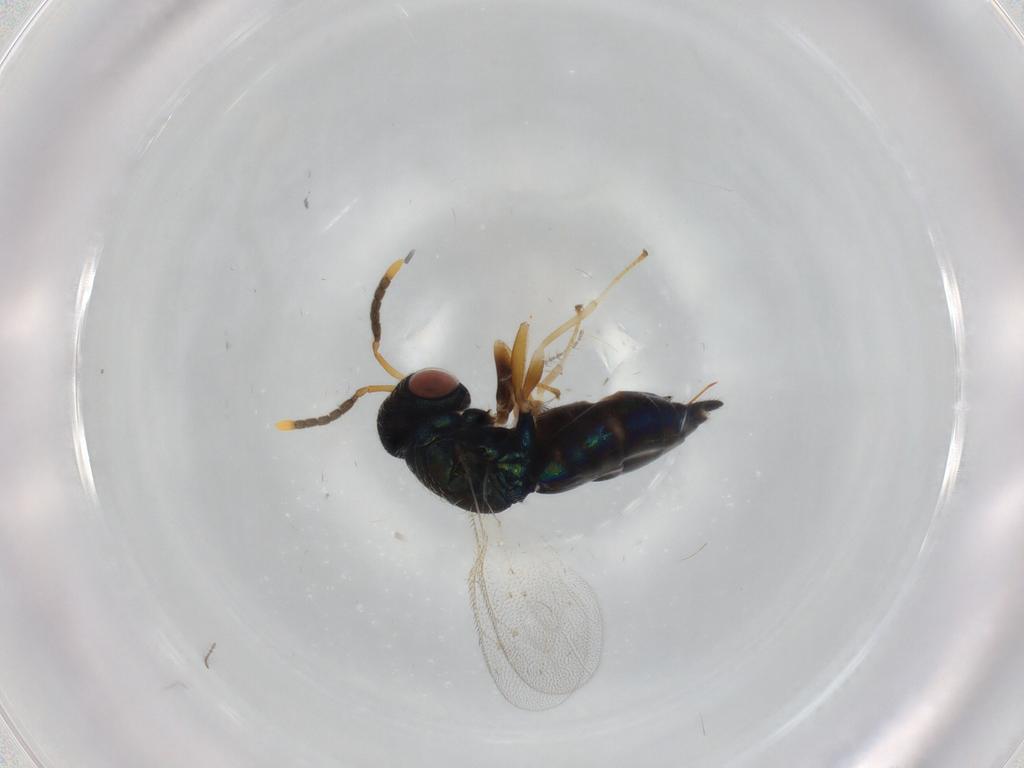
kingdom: Animalia
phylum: Arthropoda
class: Insecta
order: Hymenoptera
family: Pteromalidae
